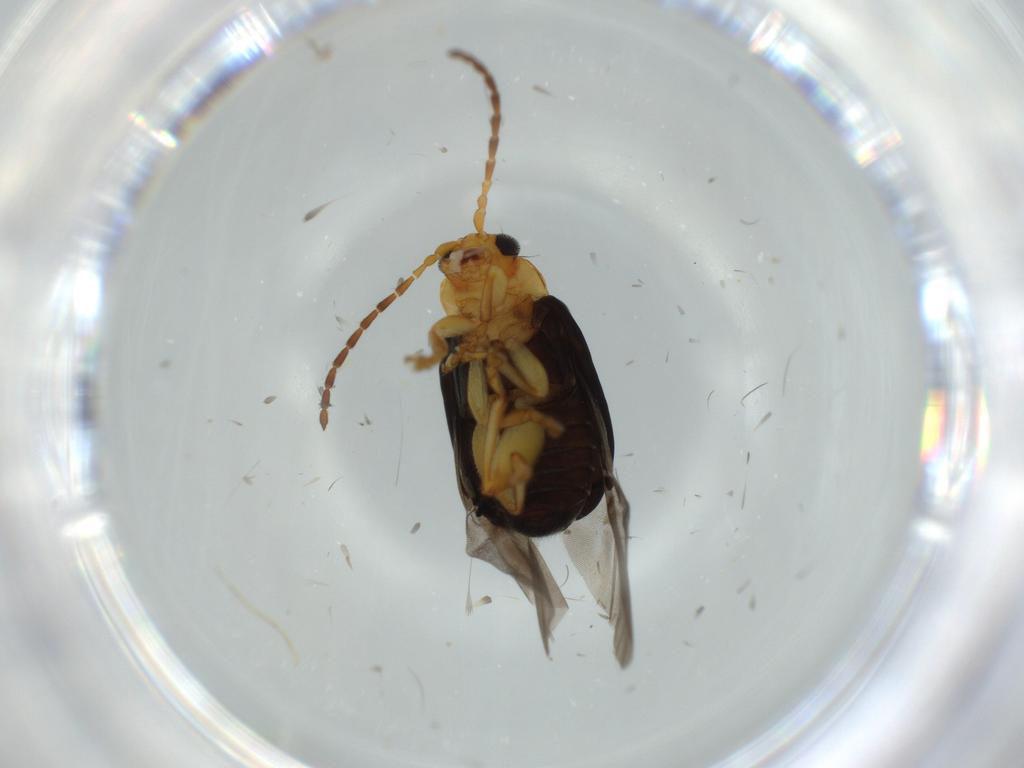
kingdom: Animalia
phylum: Arthropoda
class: Insecta
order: Coleoptera
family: Chrysomelidae
